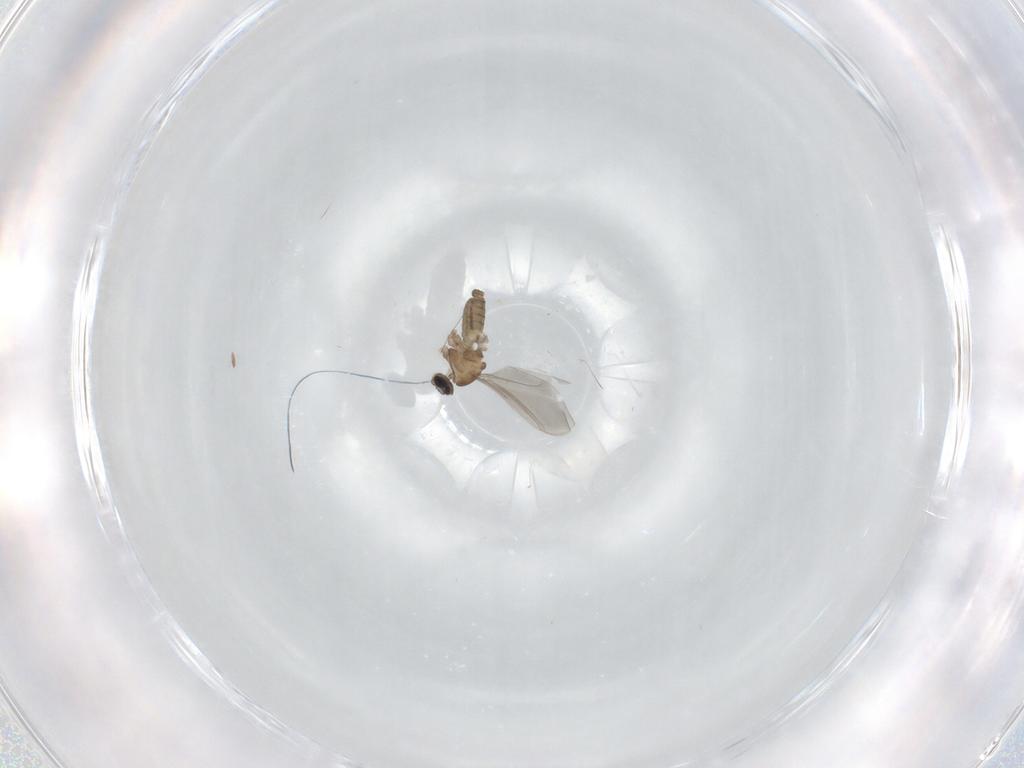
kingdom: Animalia
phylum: Arthropoda
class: Insecta
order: Diptera
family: Cecidomyiidae
